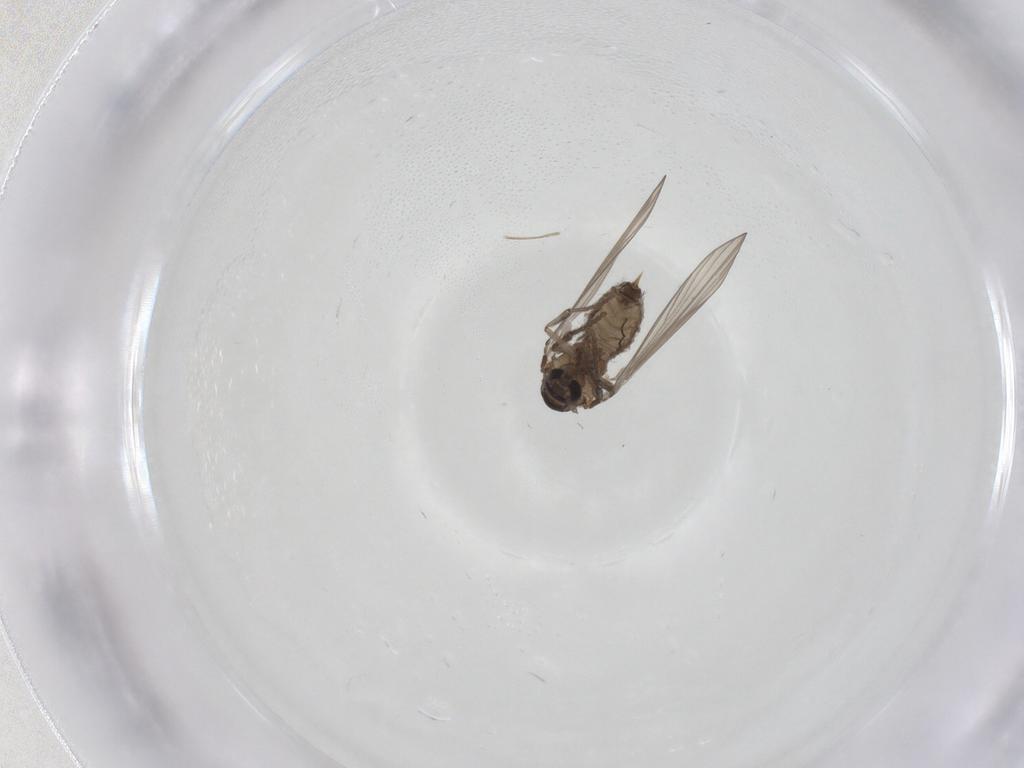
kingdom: Animalia
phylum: Arthropoda
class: Insecta
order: Diptera
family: Psychodidae
